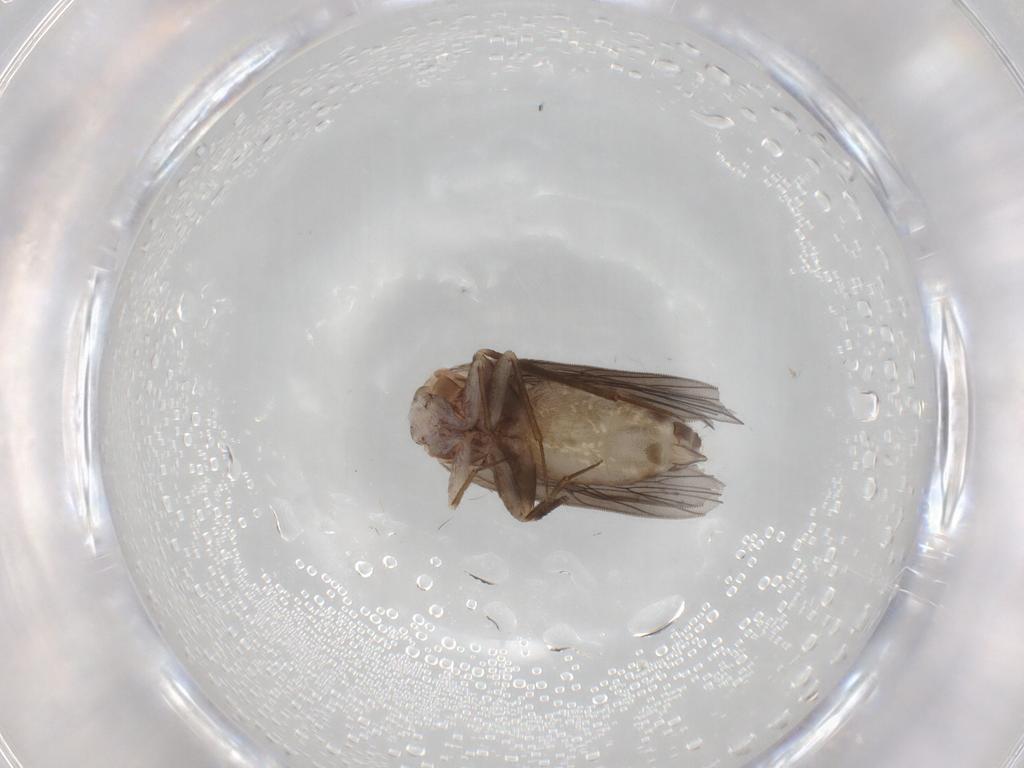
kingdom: Animalia
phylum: Arthropoda
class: Insecta
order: Psocodea
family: Lepidopsocidae
